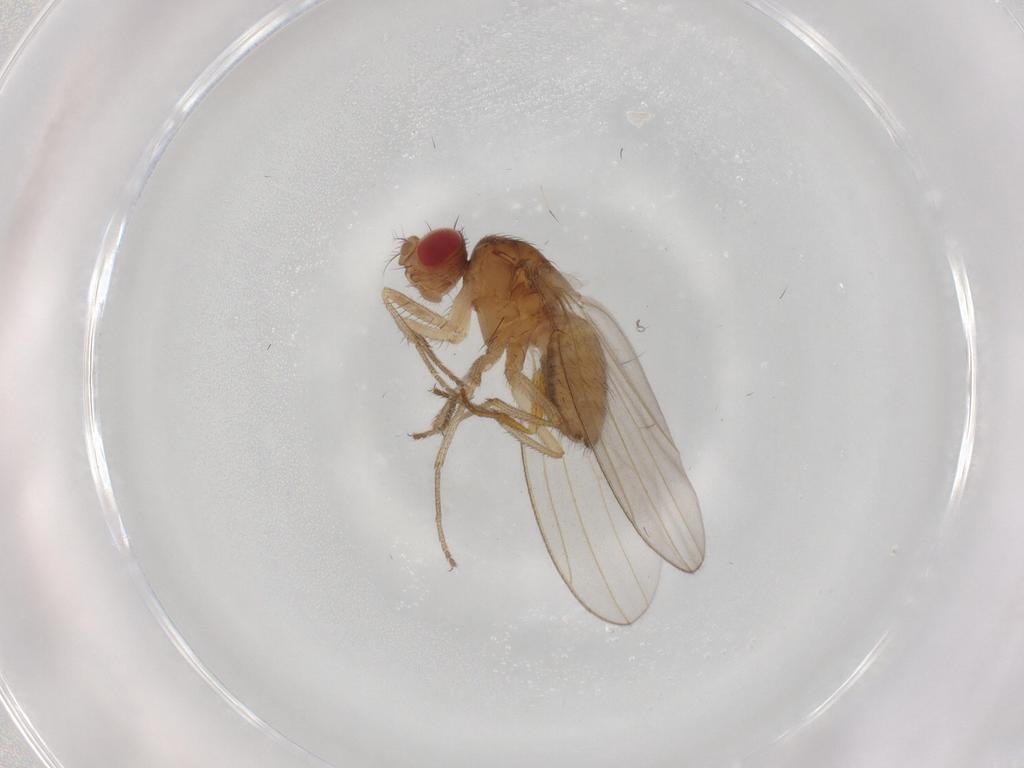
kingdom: Animalia
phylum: Arthropoda
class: Insecta
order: Diptera
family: Drosophilidae
